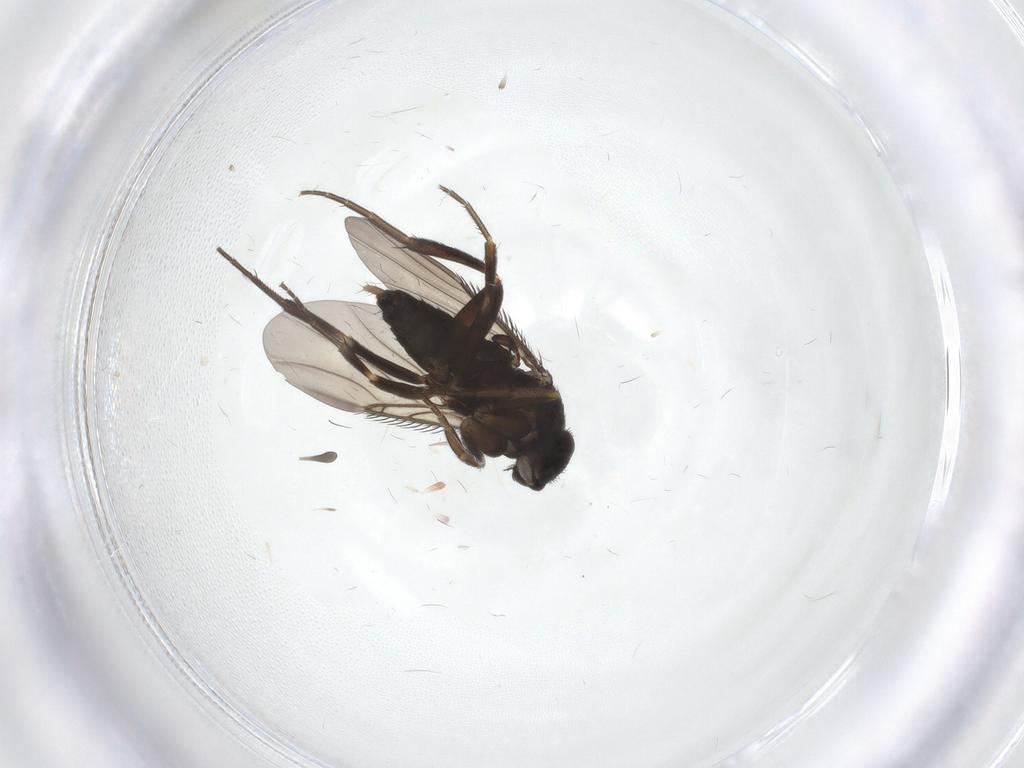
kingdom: Animalia
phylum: Arthropoda
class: Insecta
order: Diptera
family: Phoridae
